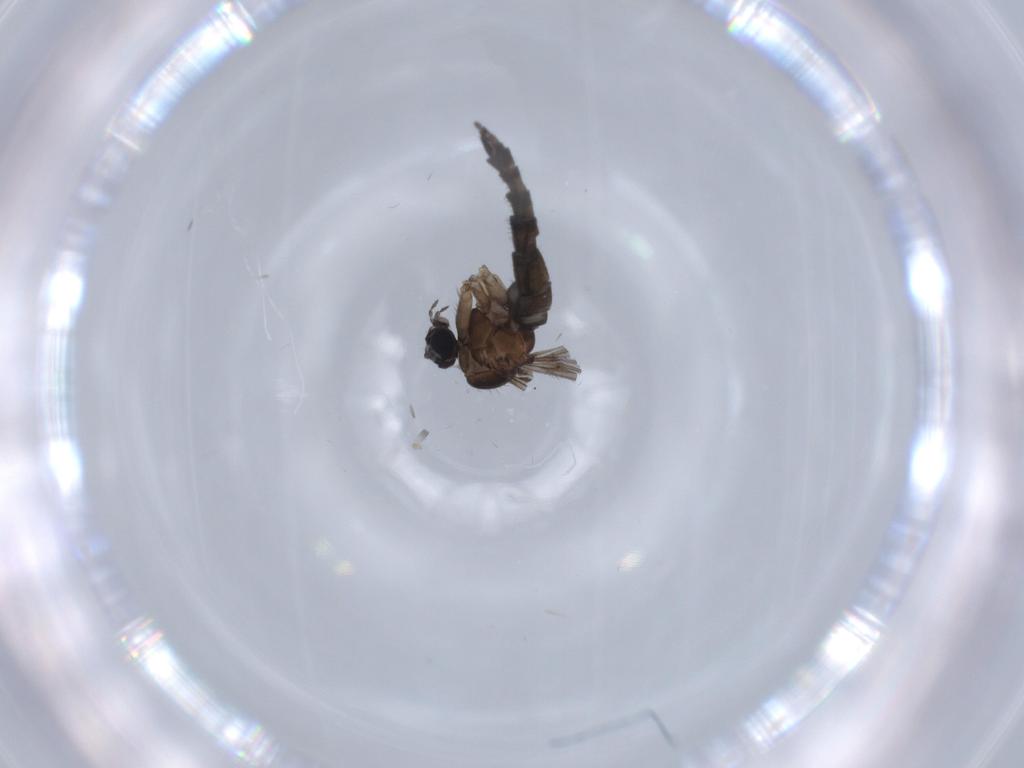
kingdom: Animalia
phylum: Arthropoda
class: Insecta
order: Diptera
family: Sciaridae
